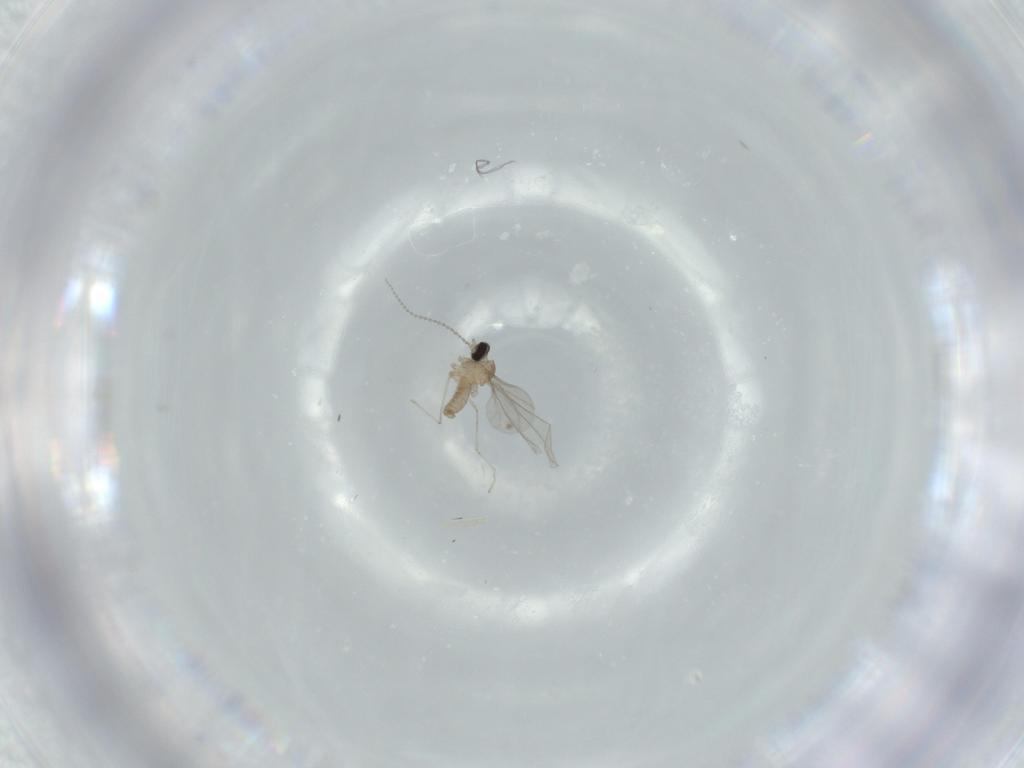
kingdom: Animalia
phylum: Arthropoda
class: Insecta
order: Diptera
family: Cecidomyiidae
